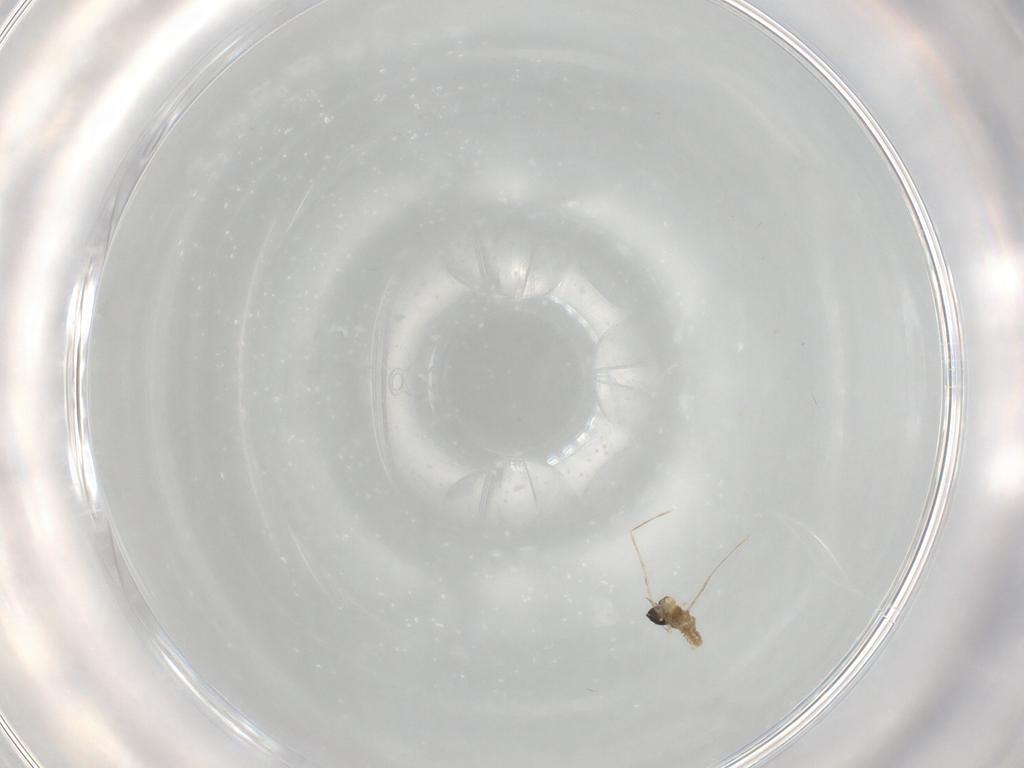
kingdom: Animalia
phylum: Arthropoda
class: Insecta
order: Diptera
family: Cecidomyiidae
